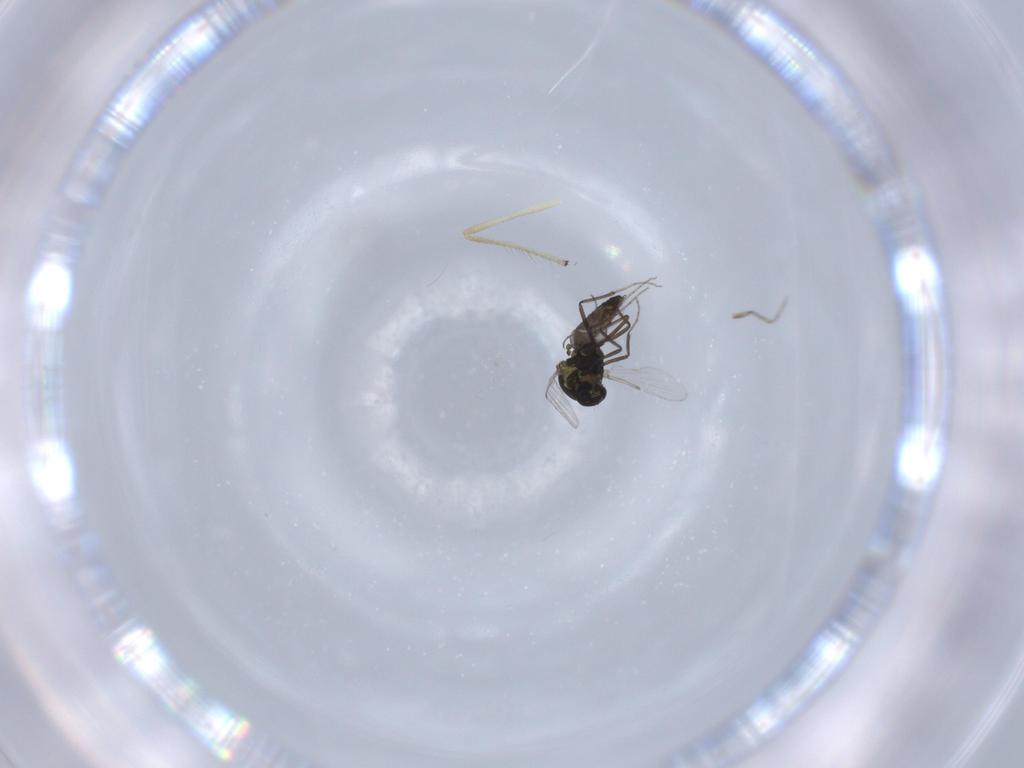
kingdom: Animalia
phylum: Arthropoda
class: Insecta
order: Diptera
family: Ceratopogonidae
